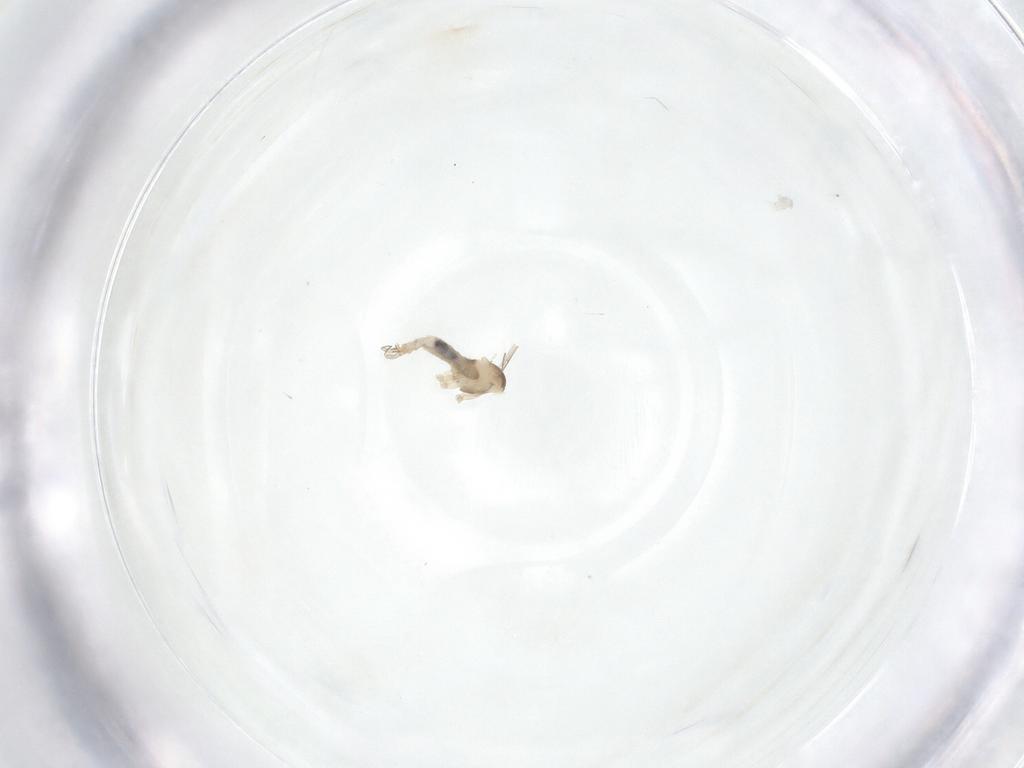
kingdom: Animalia
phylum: Arthropoda
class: Insecta
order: Diptera
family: Cecidomyiidae
